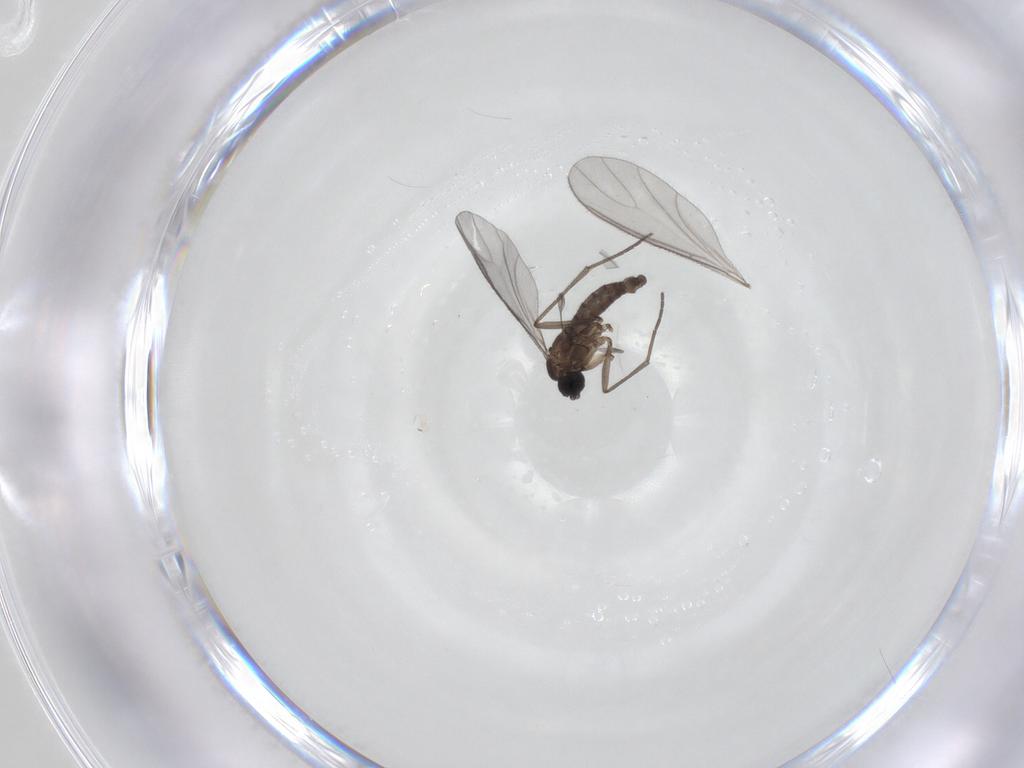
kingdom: Animalia
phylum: Arthropoda
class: Insecta
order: Diptera
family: Sciaridae
